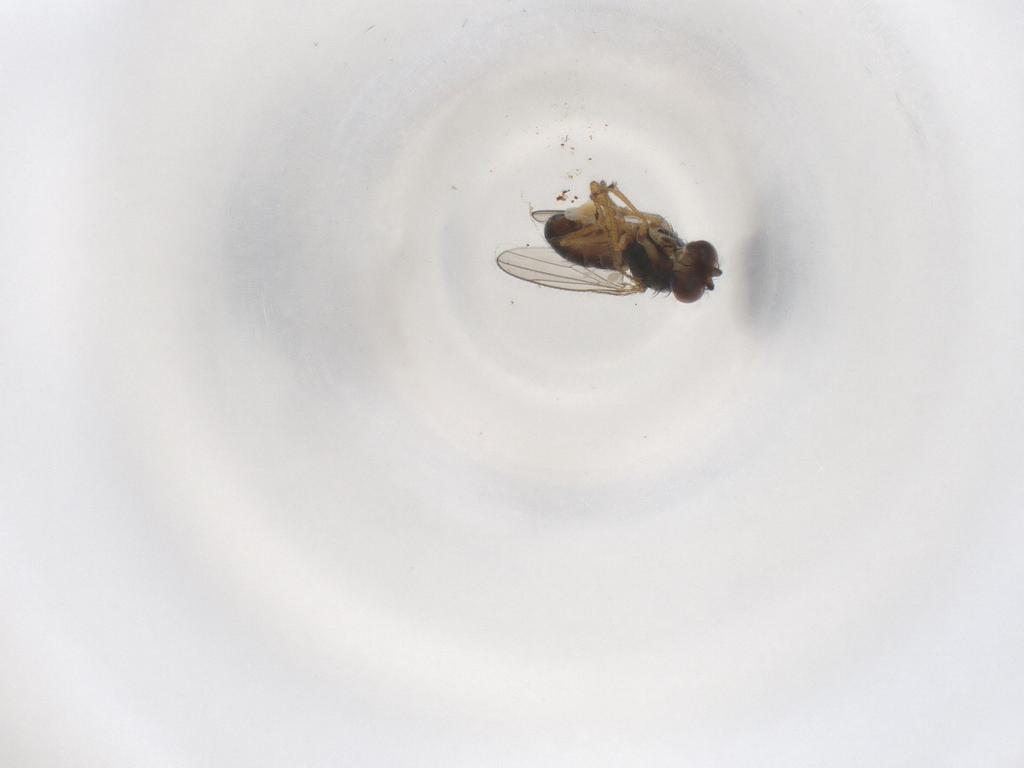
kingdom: Animalia
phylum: Arthropoda
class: Insecta
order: Diptera
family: Ephydridae
